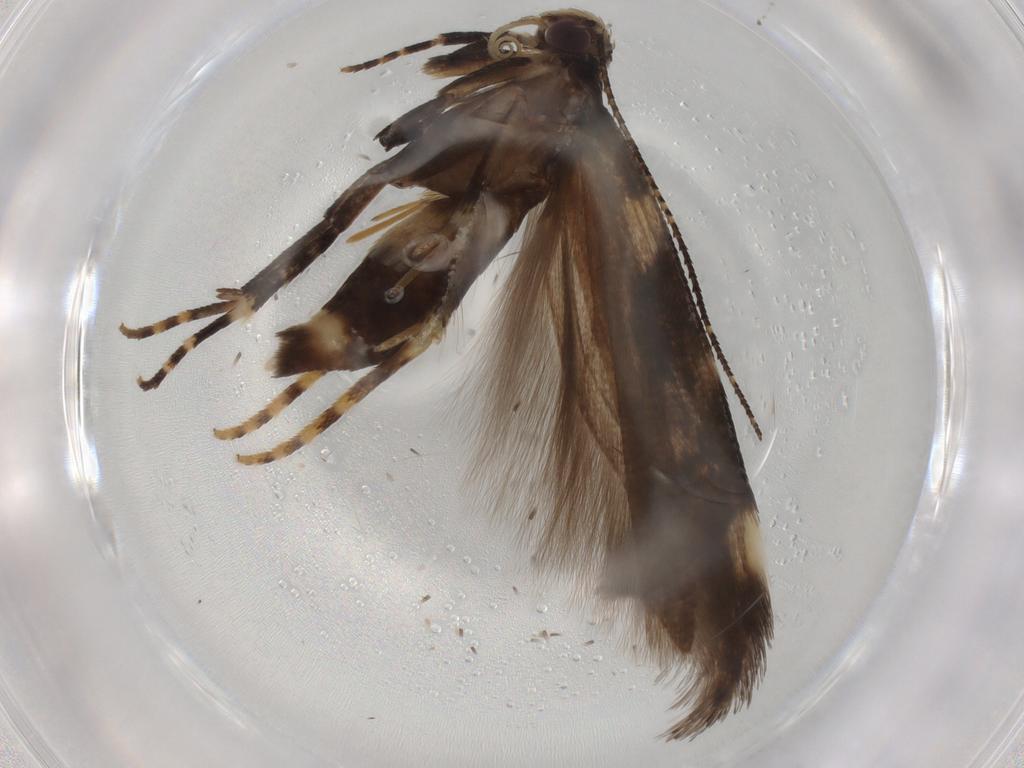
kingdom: Animalia
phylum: Arthropoda
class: Insecta
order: Lepidoptera
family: Gelechiidae
